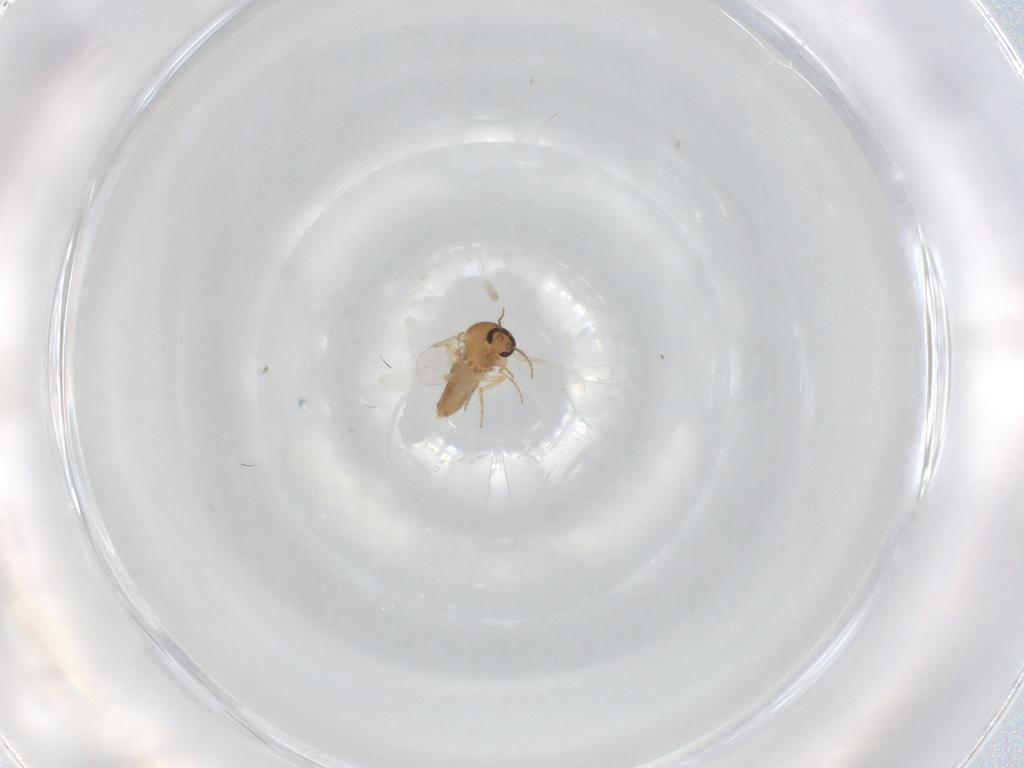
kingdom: Animalia
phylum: Arthropoda
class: Insecta
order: Diptera
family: Ceratopogonidae
